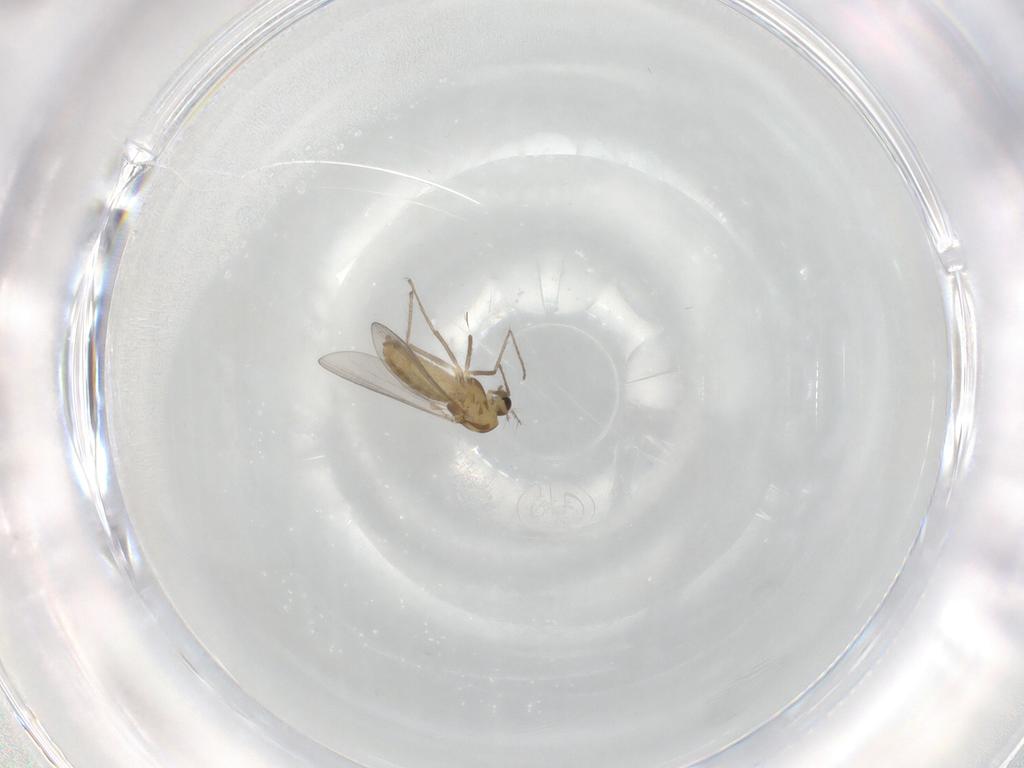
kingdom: Animalia
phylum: Arthropoda
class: Insecta
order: Diptera
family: Chironomidae
